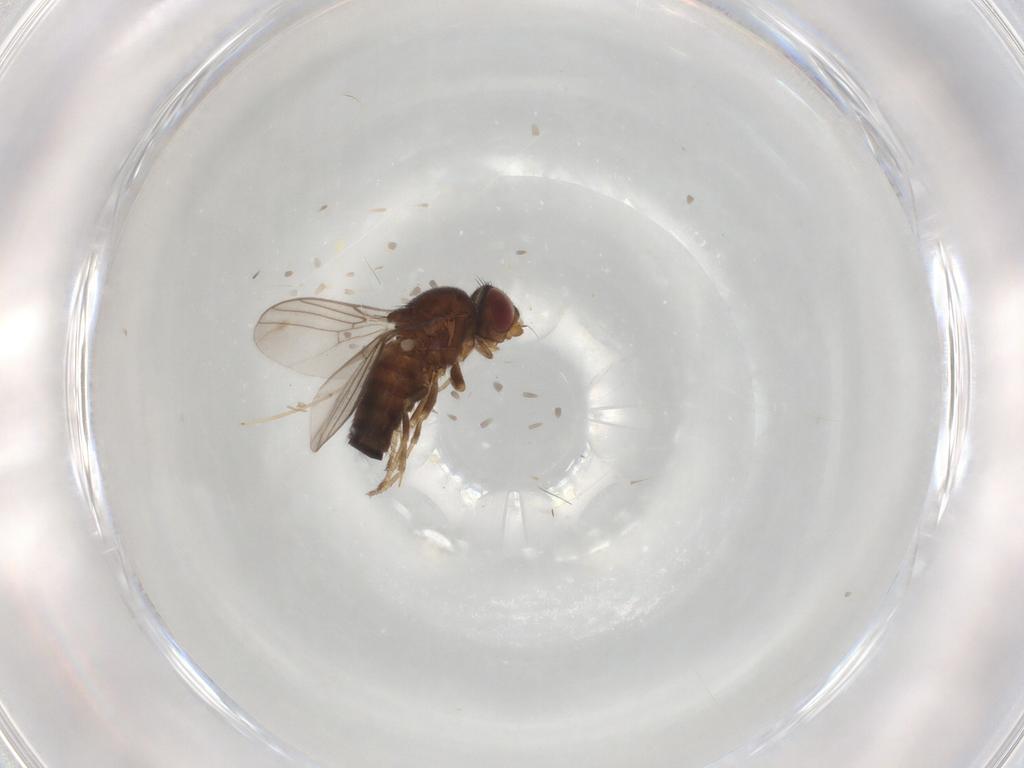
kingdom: Animalia
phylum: Arthropoda
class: Insecta
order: Diptera
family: Chloropidae
